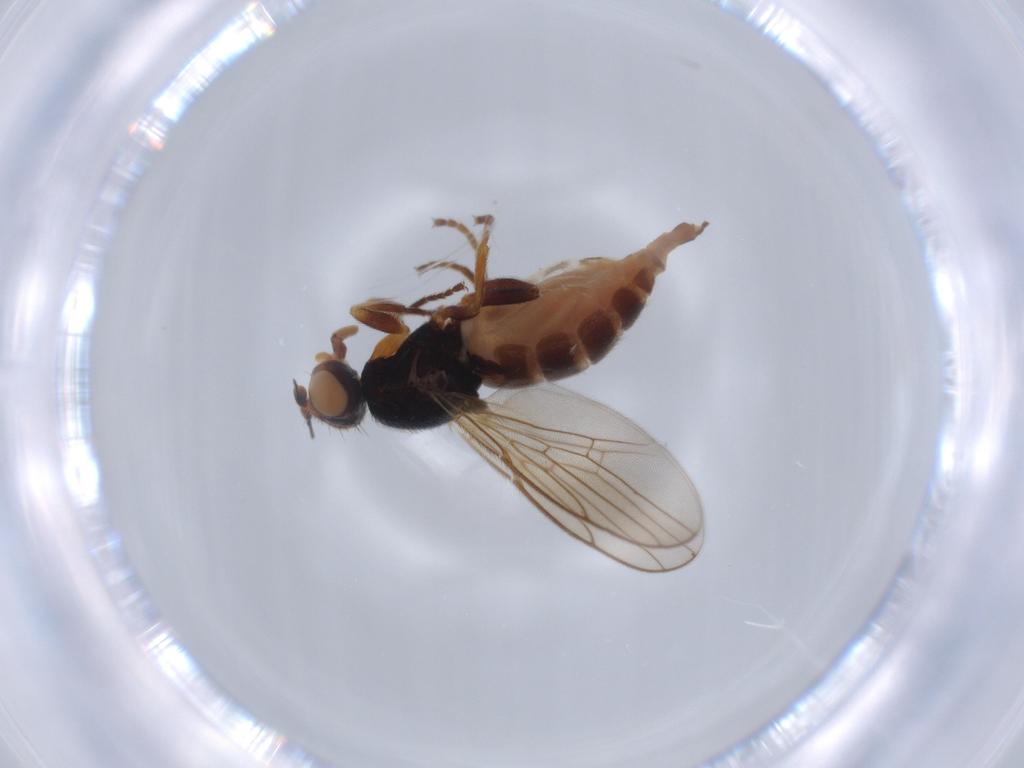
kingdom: Animalia
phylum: Arthropoda
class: Insecta
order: Diptera
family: Chloropidae
